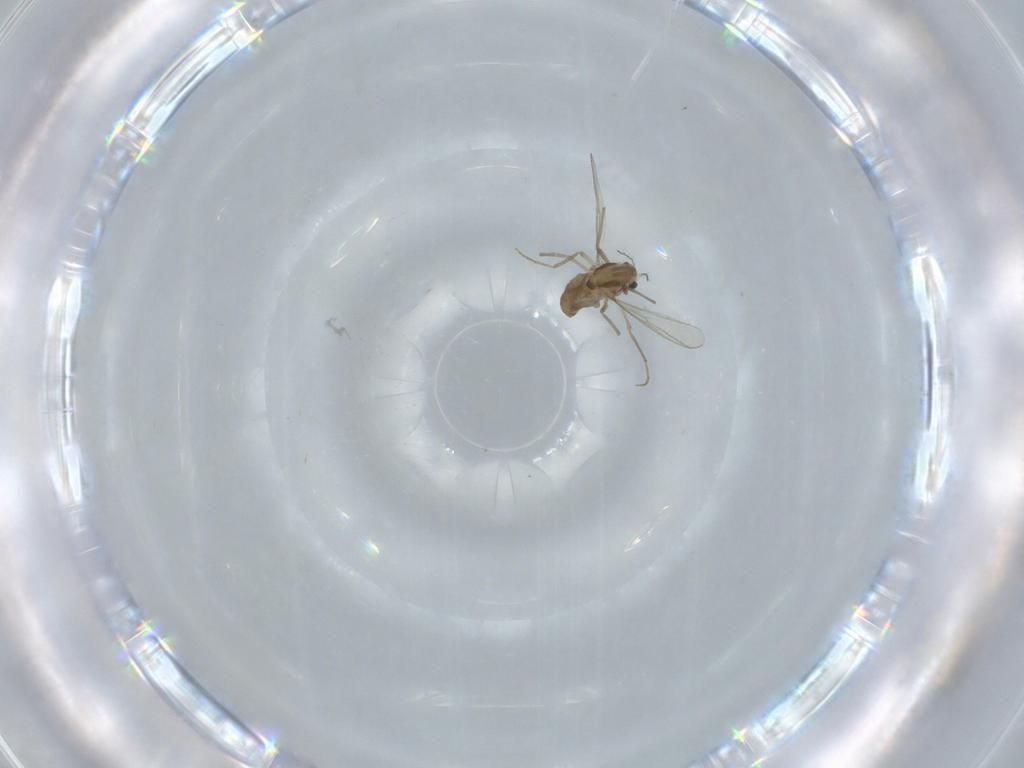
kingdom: Animalia
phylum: Arthropoda
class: Insecta
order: Diptera
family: Chironomidae
